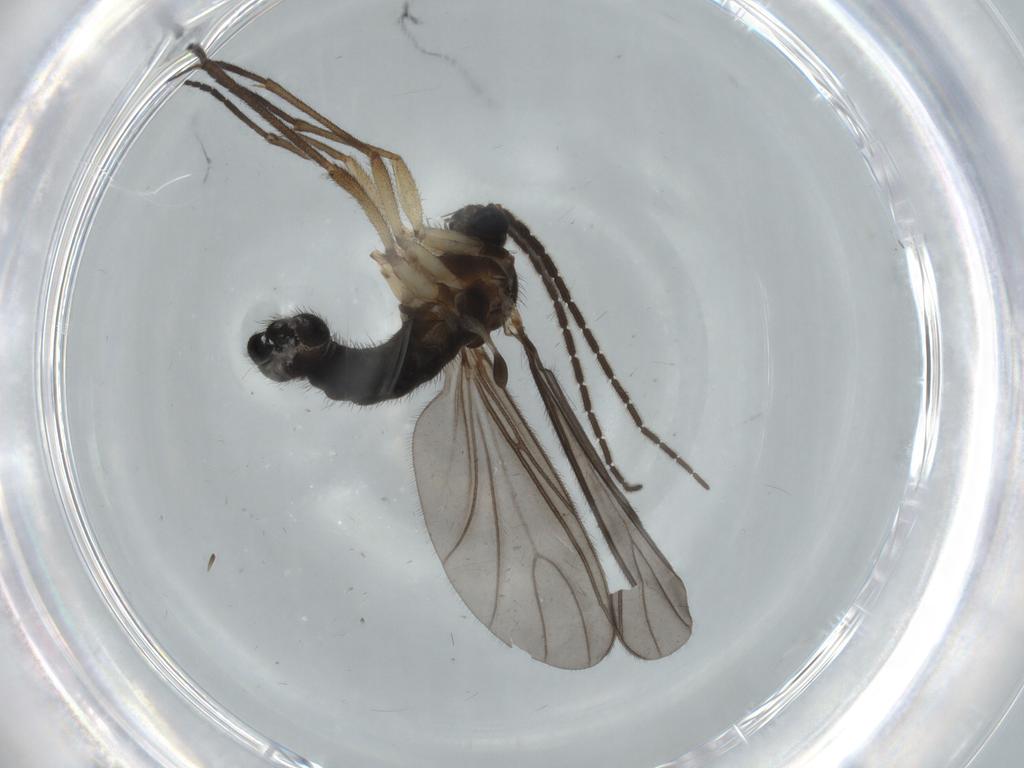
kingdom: Animalia
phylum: Arthropoda
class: Insecta
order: Diptera
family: Sciaridae
